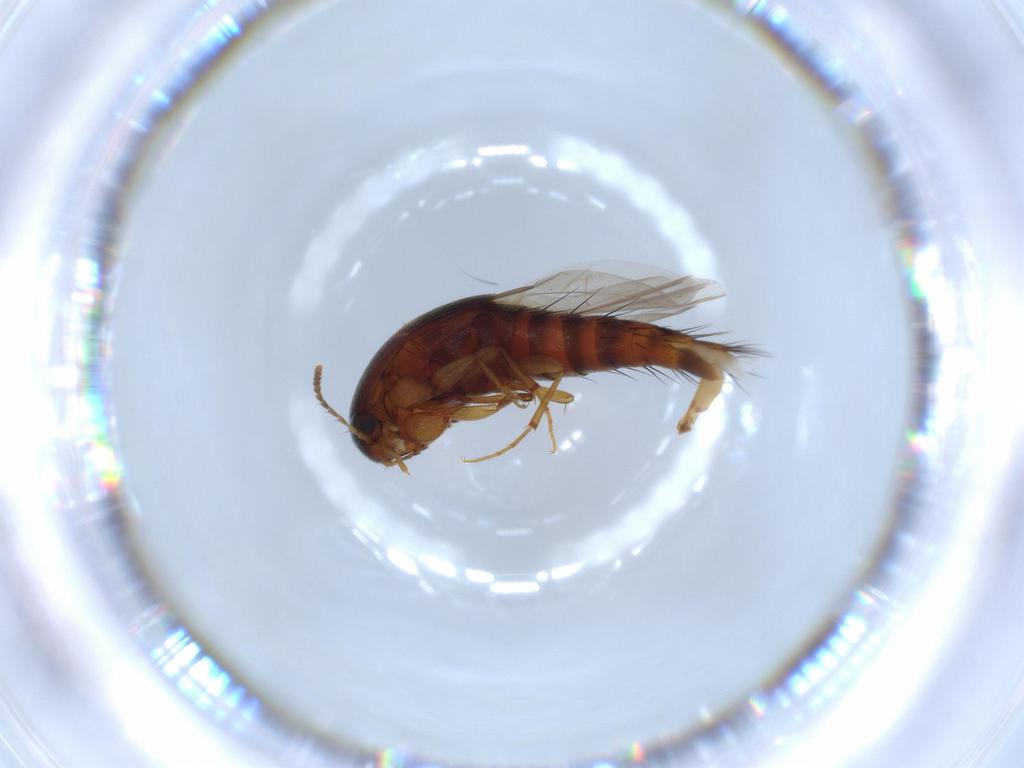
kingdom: Animalia
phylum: Arthropoda
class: Insecta
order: Coleoptera
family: Staphylinidae
